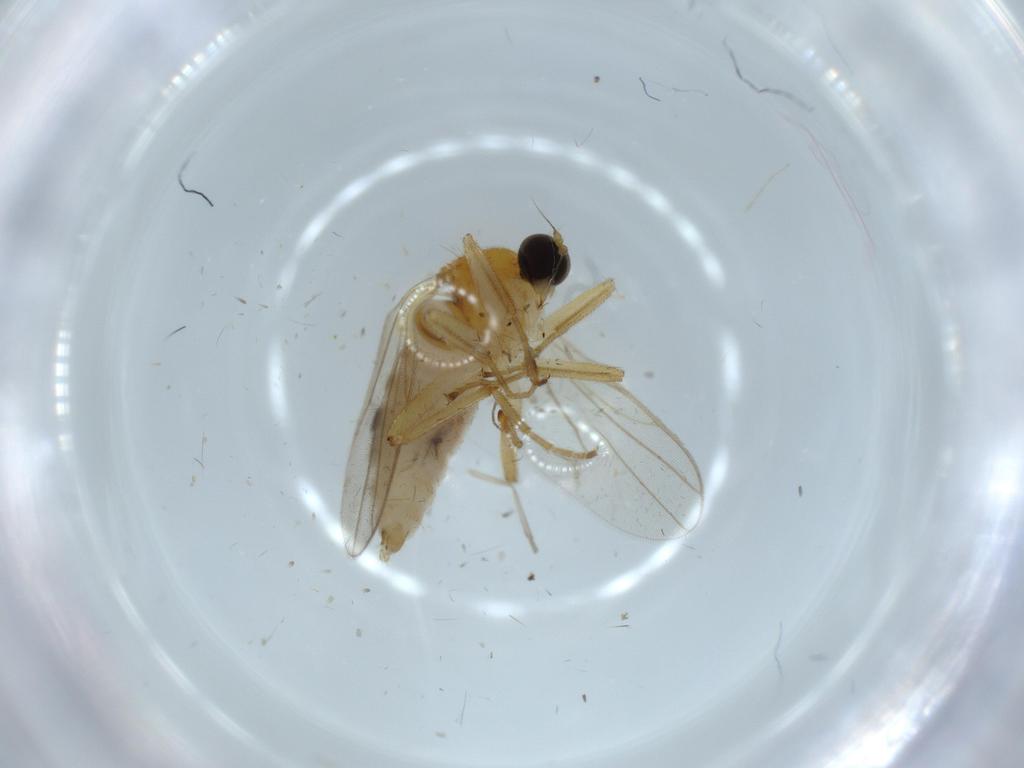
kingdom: Animalia
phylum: Arthropoda
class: Insecta
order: Diptera
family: Hybotidae
